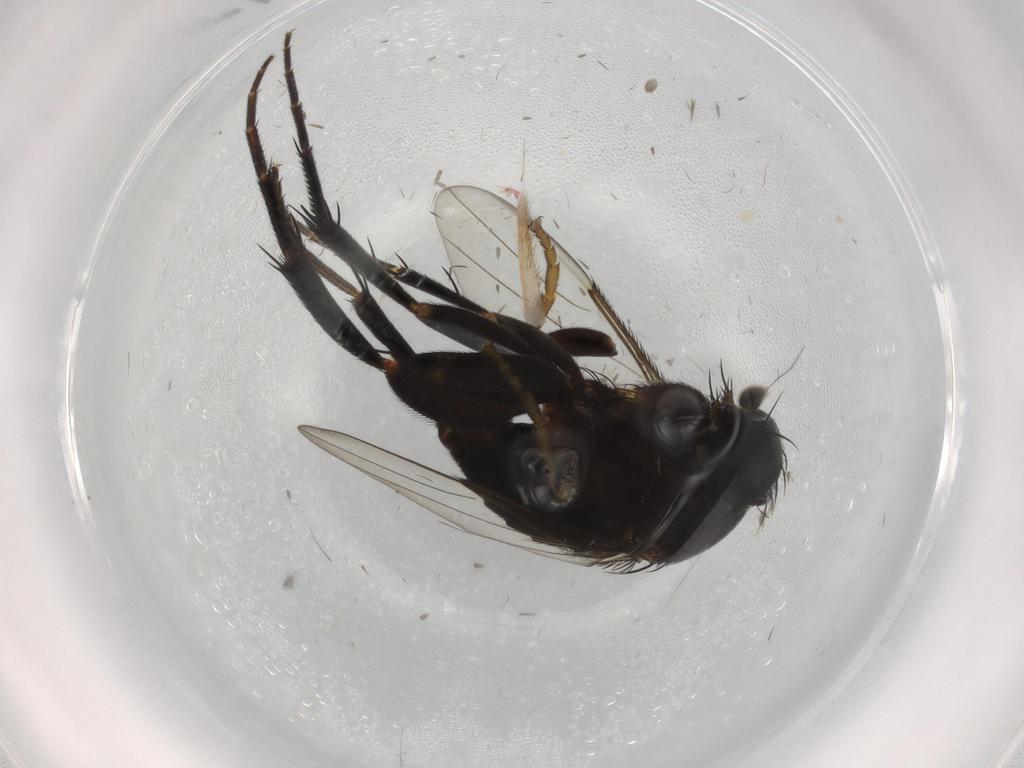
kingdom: Animalia
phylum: Arthropoda
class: Insecta
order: Diptera
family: Phoridae
